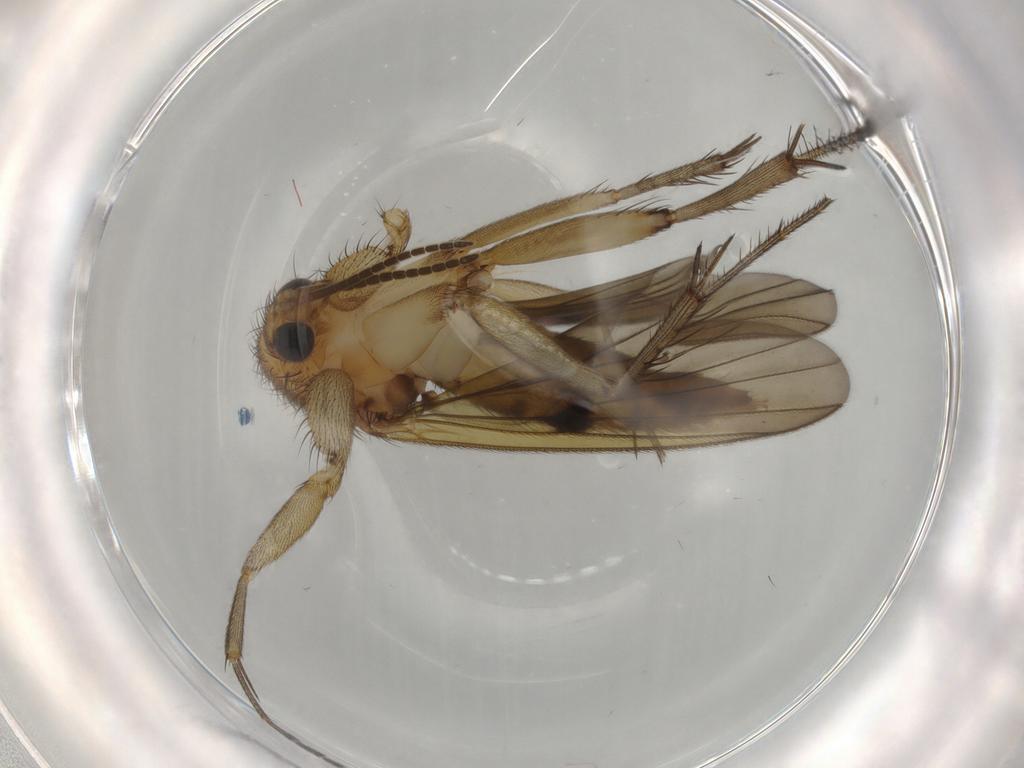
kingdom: Animalia
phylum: Arthropoda
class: Insecta
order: Diptera
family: Mycetophilidae
